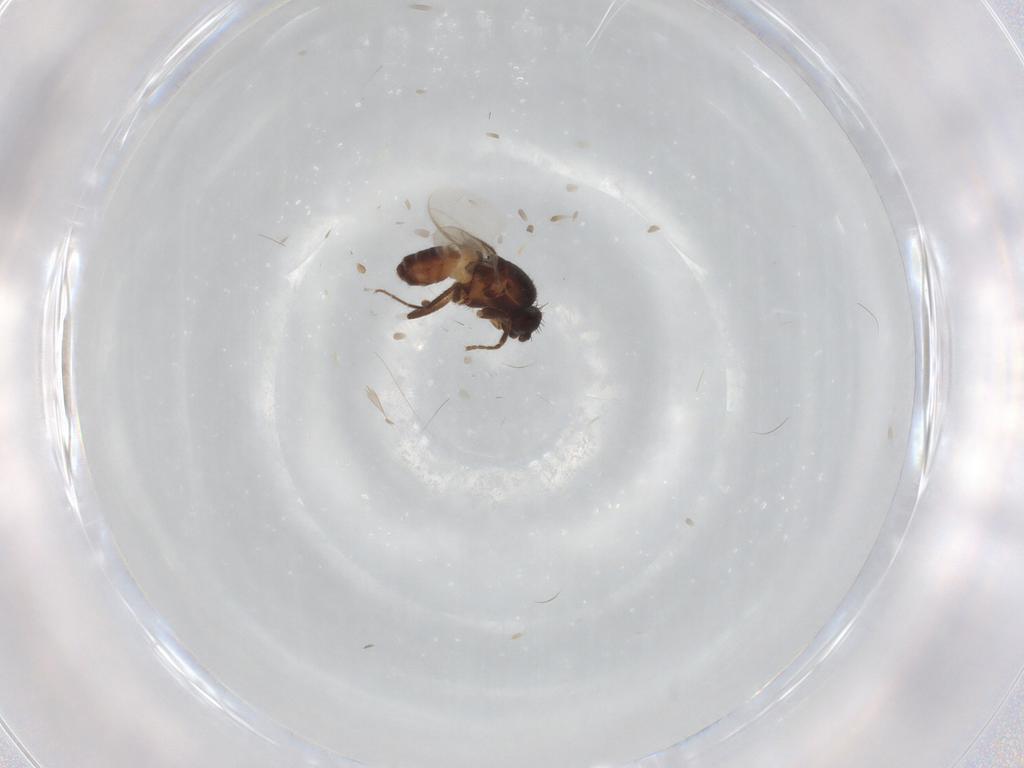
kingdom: Animalia
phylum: Arthropoda
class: Insecta
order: Diptera
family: Sphaeroceridae
